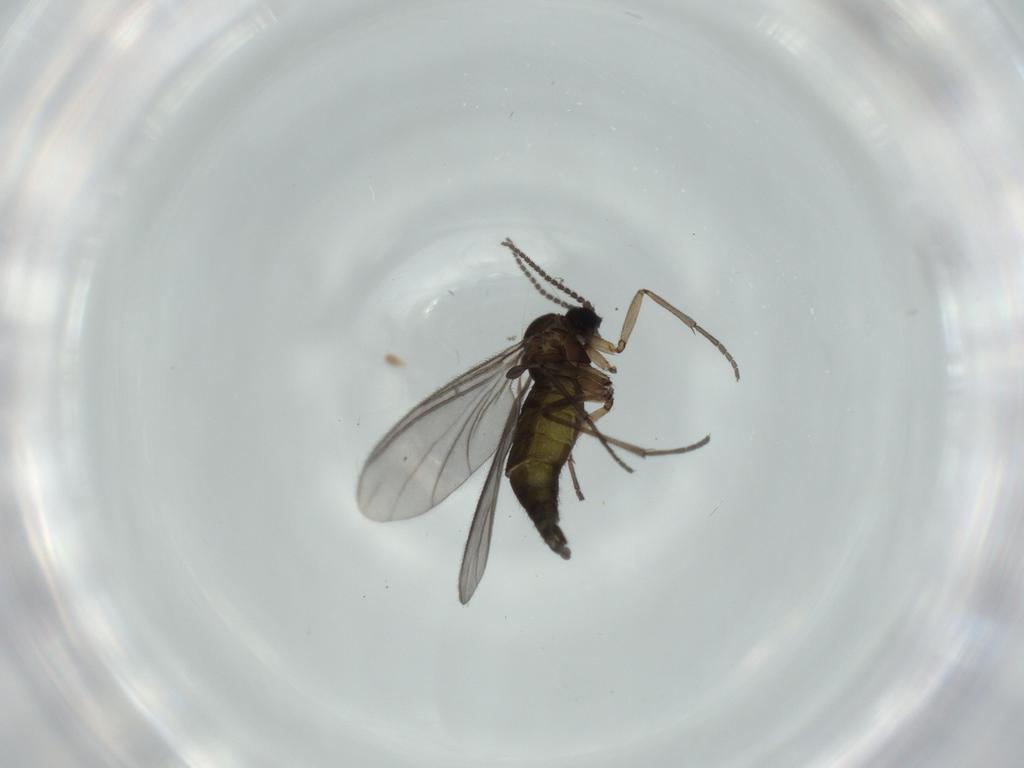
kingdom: Animalia
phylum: Arthropoda
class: Insecta
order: Diptera
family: Sciaridae
